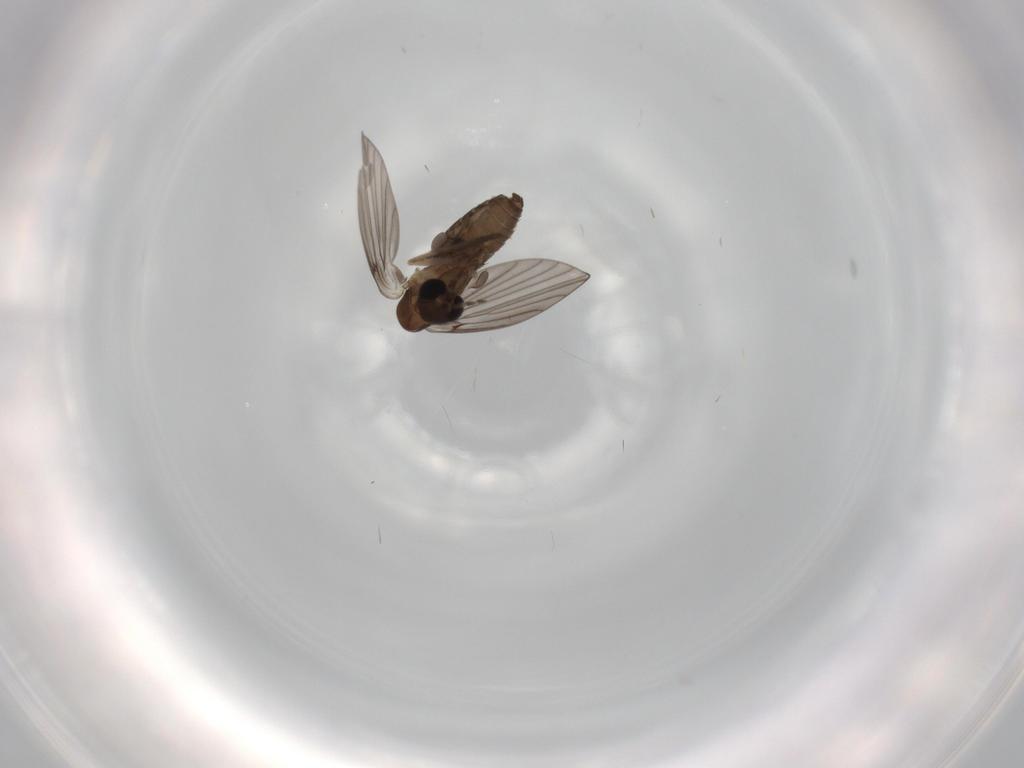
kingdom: Animalia
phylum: Arthropoda
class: Insecta
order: Diptera
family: Psychodidae
